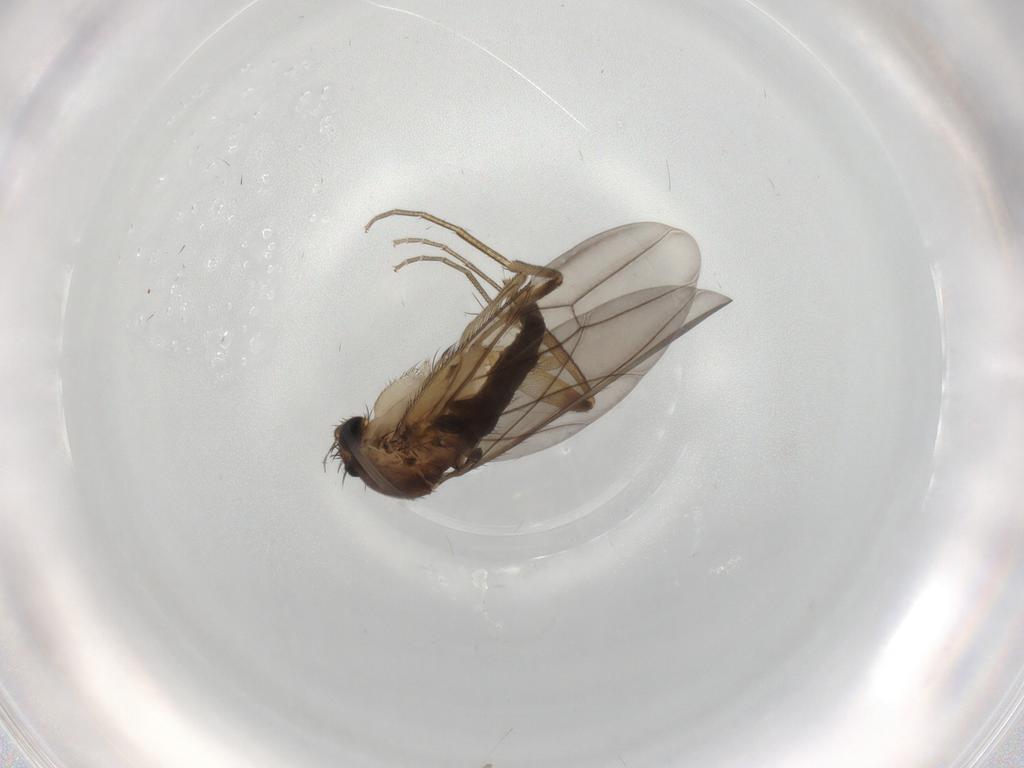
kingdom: Animalia
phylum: Arthropoda
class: Insecta
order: Diptera
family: Phoridae
